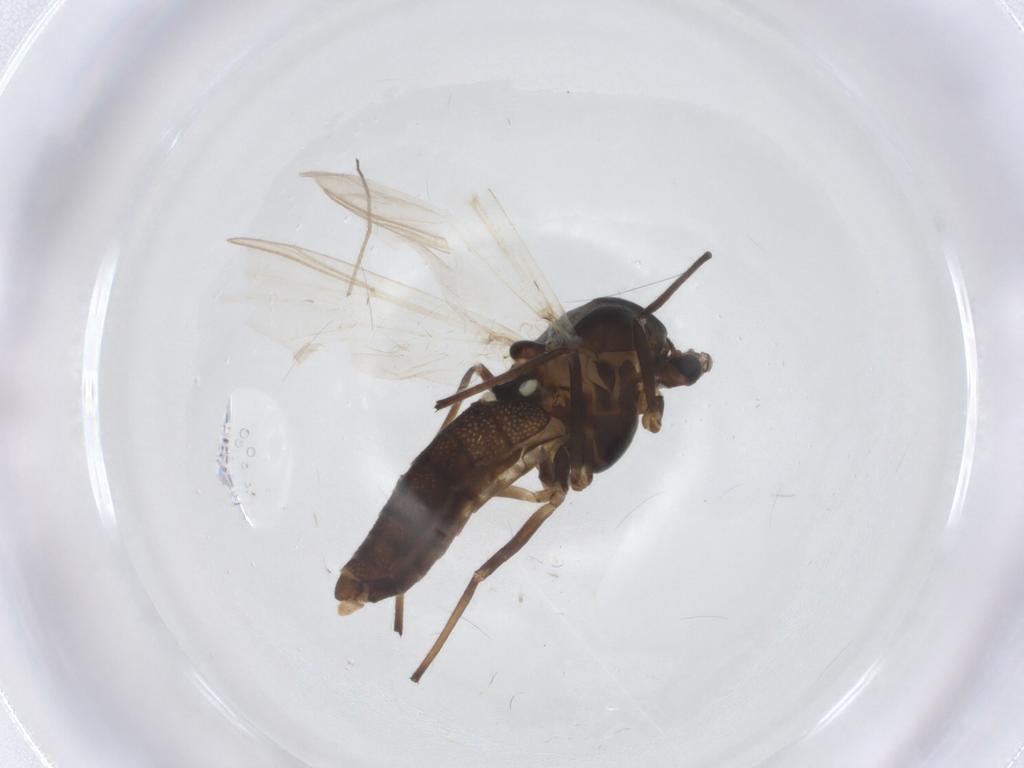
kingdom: Animalia
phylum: Arthropoda
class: Insecta
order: Diptera
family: Chironomidae
